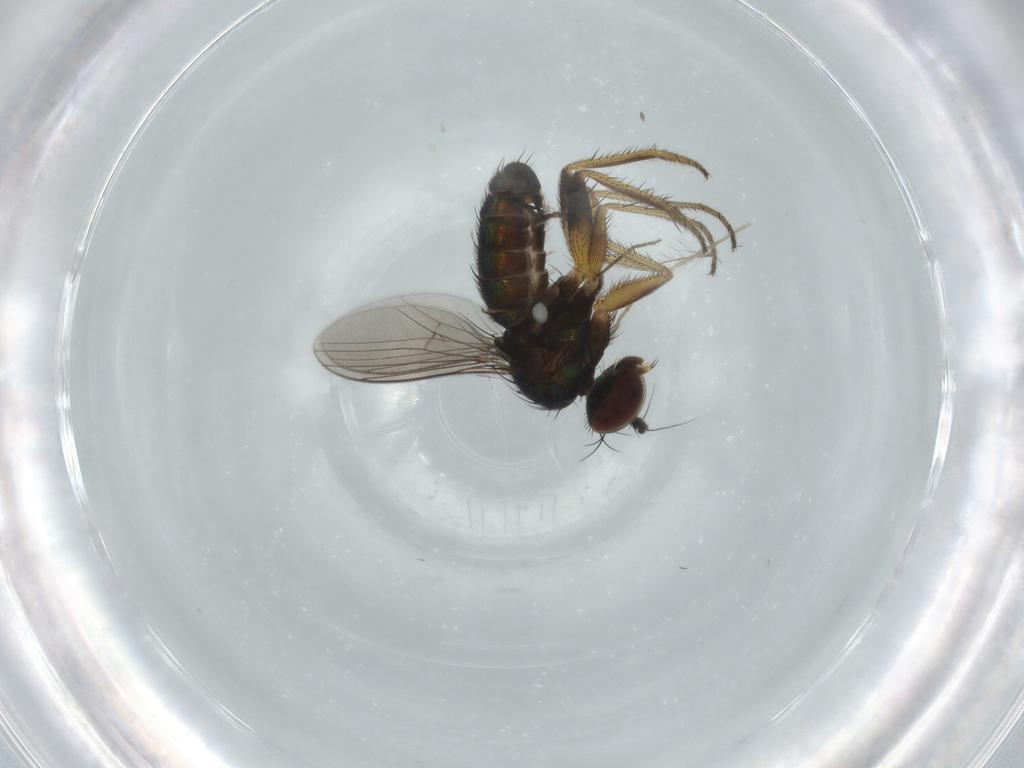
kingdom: Animalia
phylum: Arthropoda
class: Insecta
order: Diptera
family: Dolichopodidae
